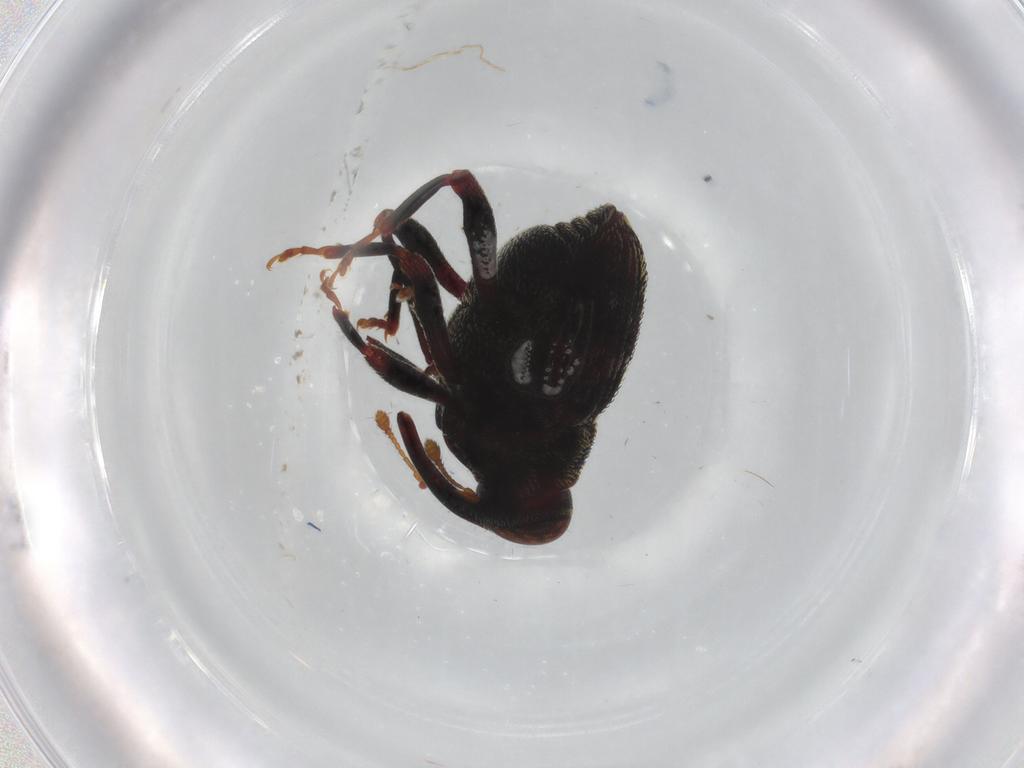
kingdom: Animalia
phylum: Arthropoda
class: Insecta
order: Coleoptera
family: Curculionidae
